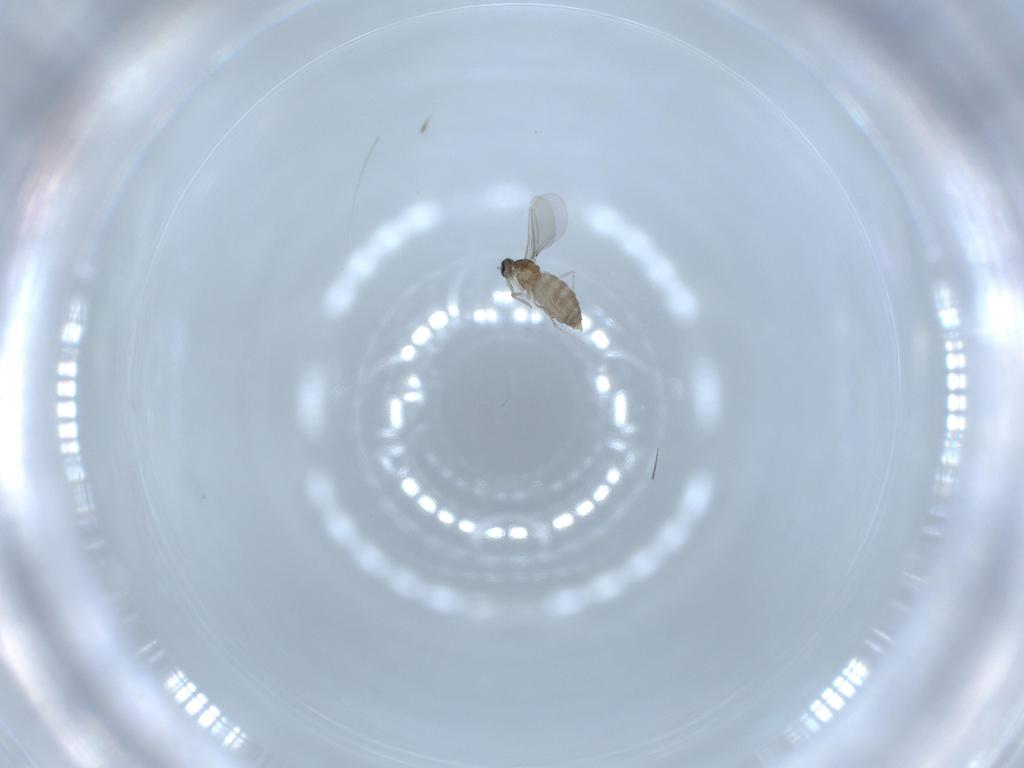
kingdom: Animalia
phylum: Arthropoda
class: Insecta
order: Diptera
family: Cecidomyiidae
